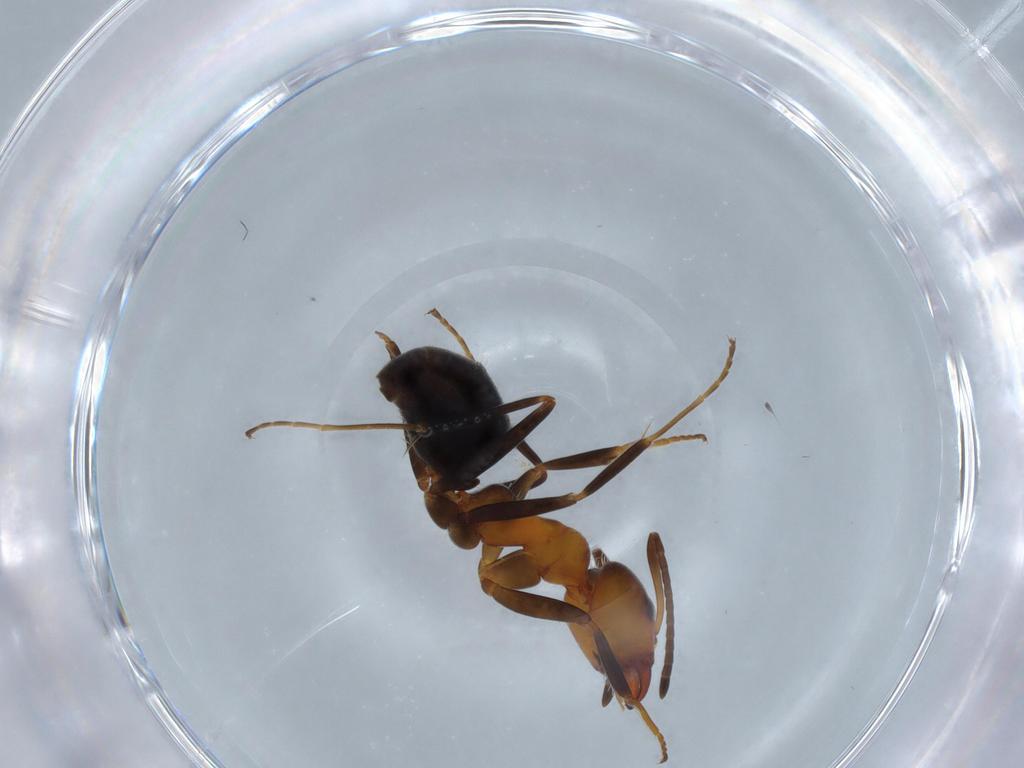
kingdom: Animalia
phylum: Arthropoda
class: Insecta
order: Hymenoptera
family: Formicidae
